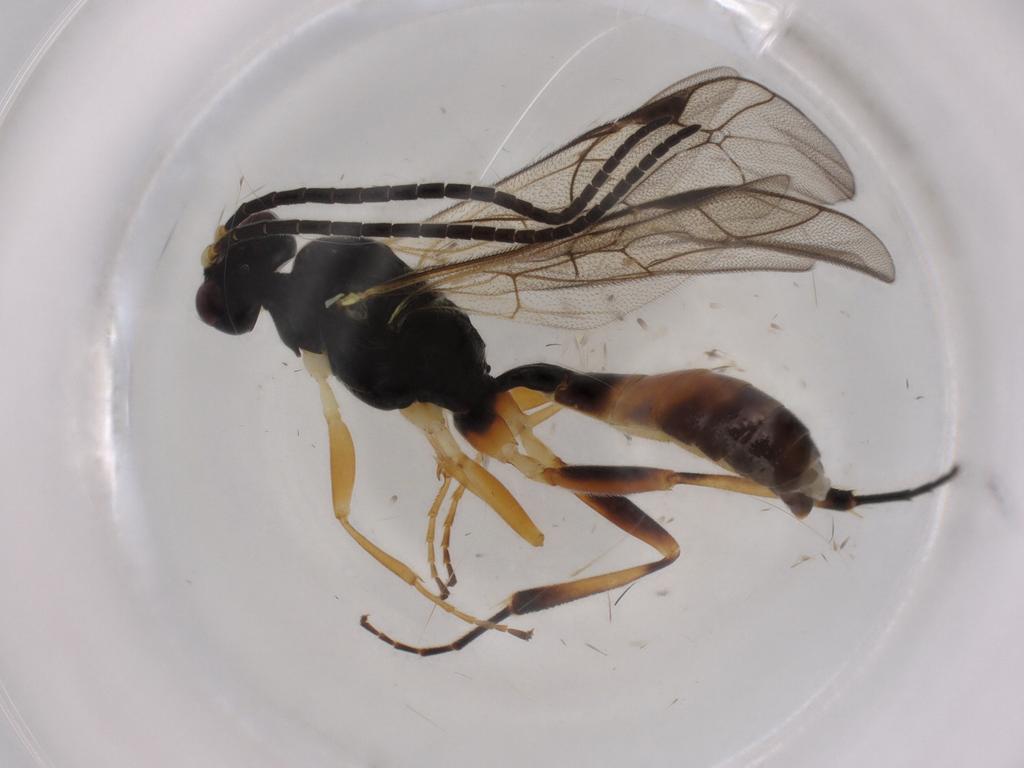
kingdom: Animalia
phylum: Arthropoda
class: Insecta
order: Hymenoptera
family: Ichneumonidae
